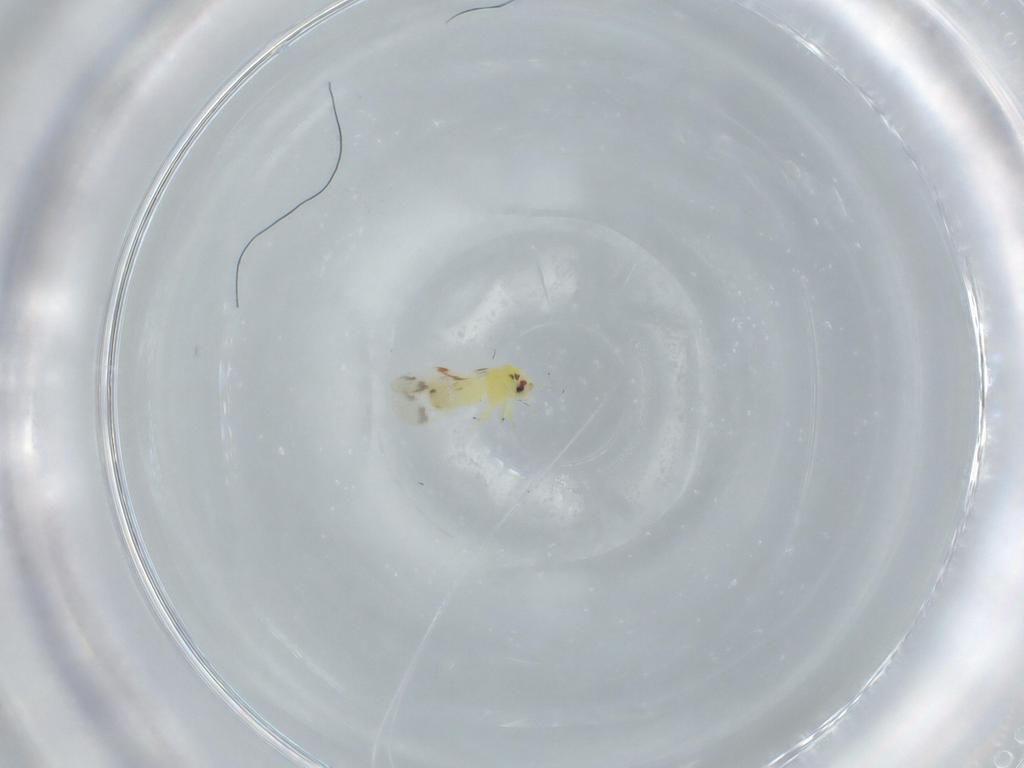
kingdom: Animalia
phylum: Arthropoda
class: Insecta
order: Hemiptera
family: Aleyrodidae
